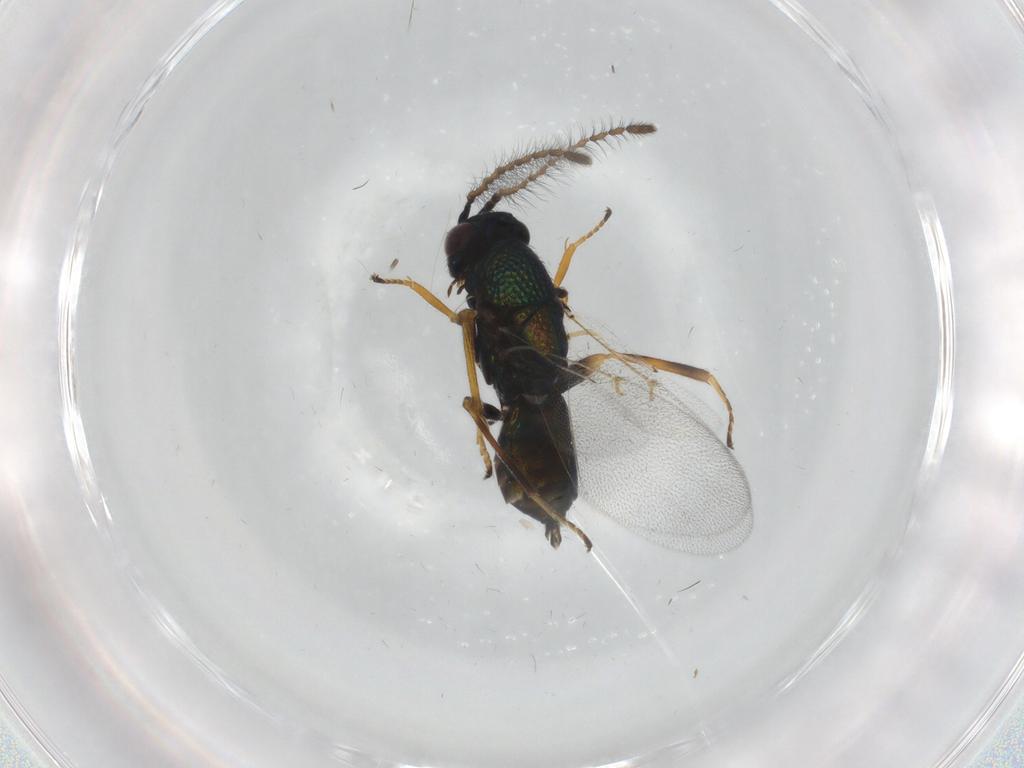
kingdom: Animalia
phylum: Arthropoda
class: Insecta
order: Hymenoptera
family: Encyrtidae
